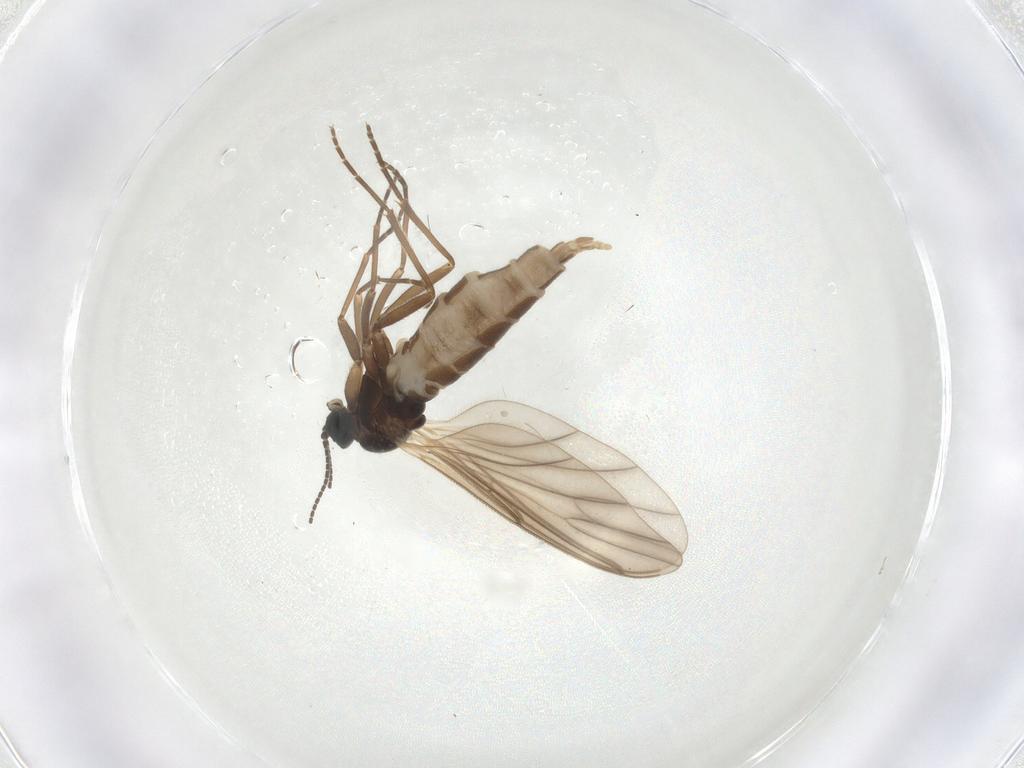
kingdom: Animalia
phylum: Arthropoda
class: Insecta
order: Diptera
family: Sciaridae
